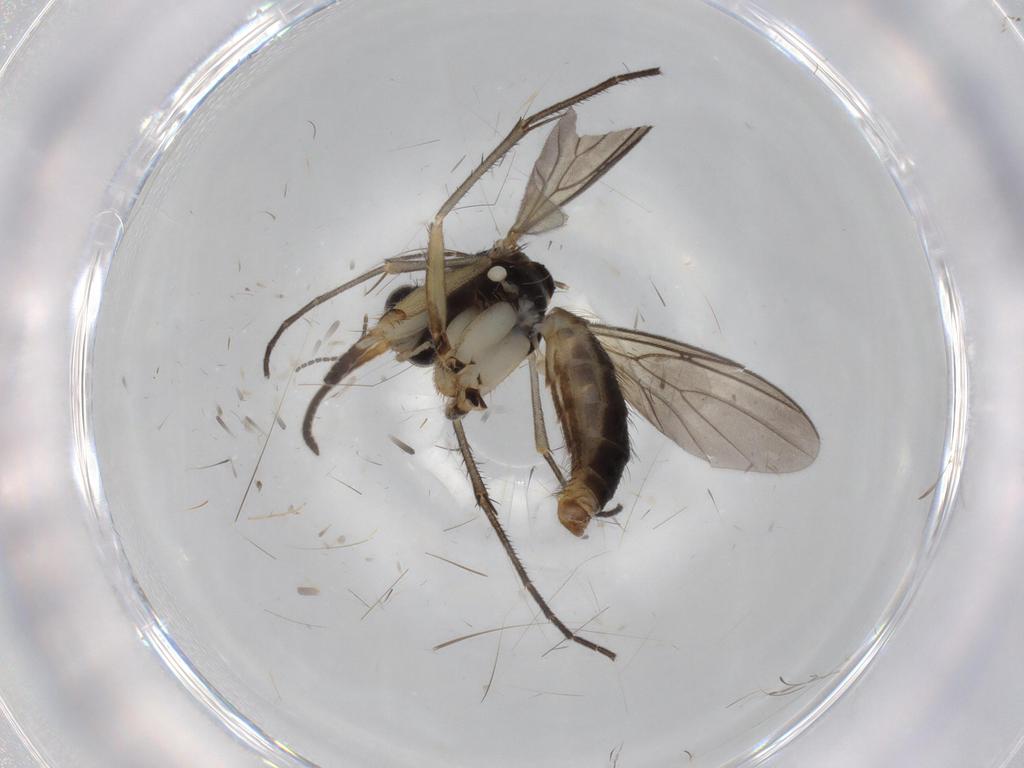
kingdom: Animalia
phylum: Arthropoda
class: Insecta
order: Diptera
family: Cecidomyiidae
